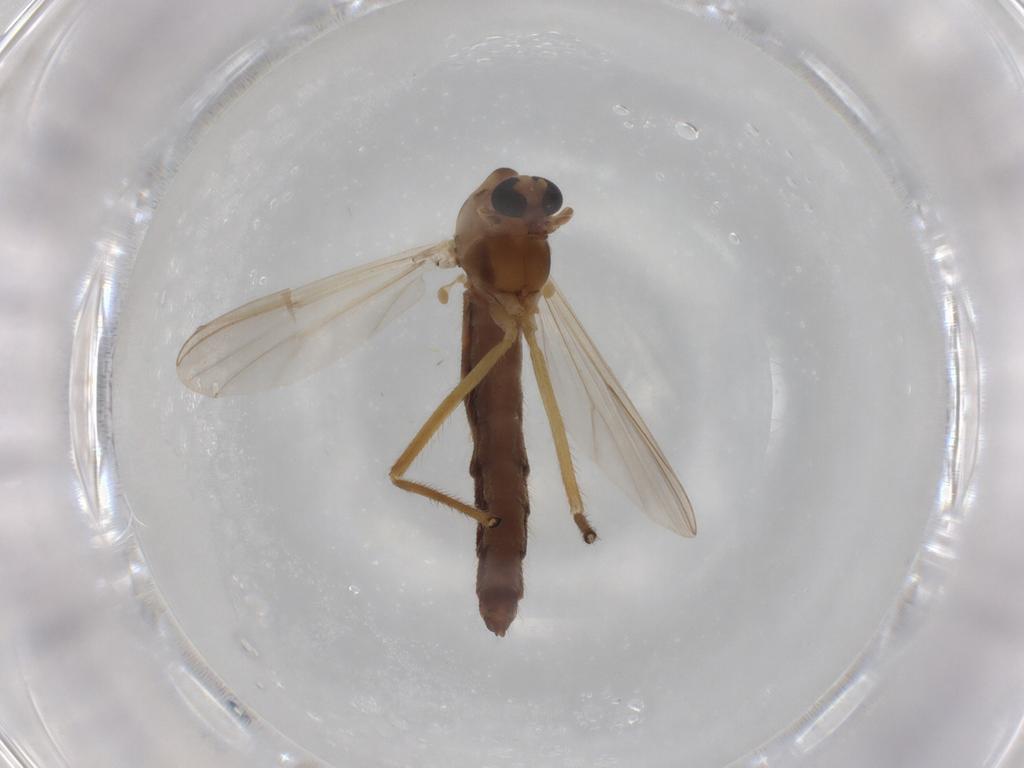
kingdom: Animalia
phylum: Arthropoda
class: Insecta
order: Diptera
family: Chironomidae
